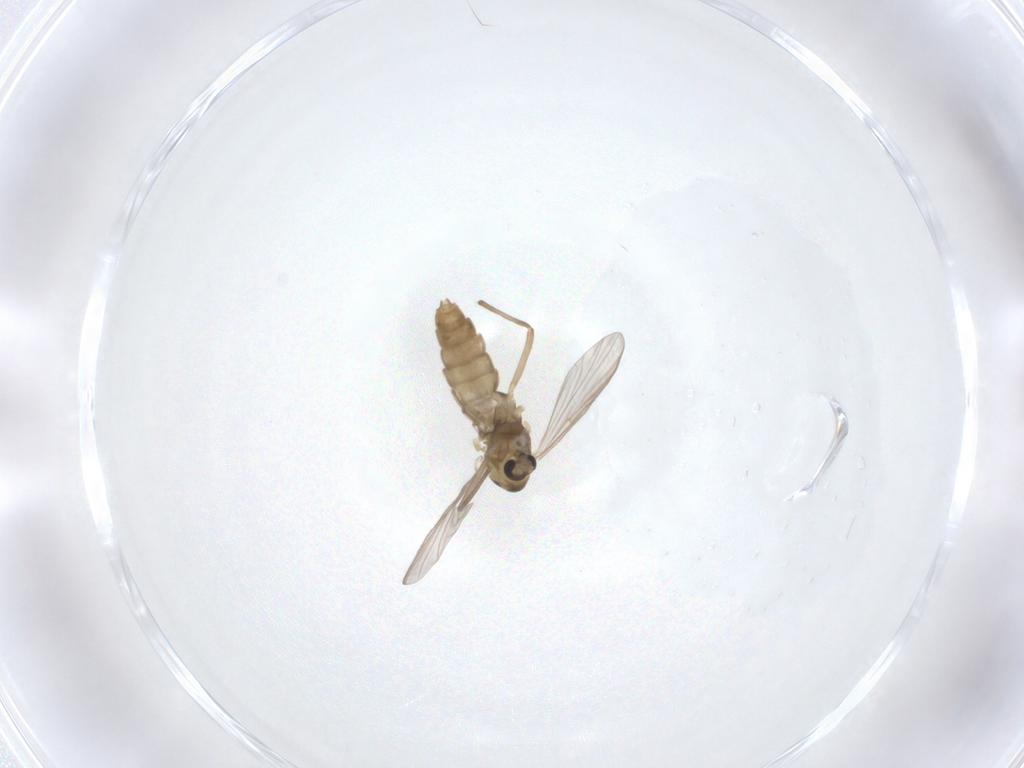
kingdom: Animalia
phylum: Arthropoda
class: Insecta
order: Diptera
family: Chironomidae
